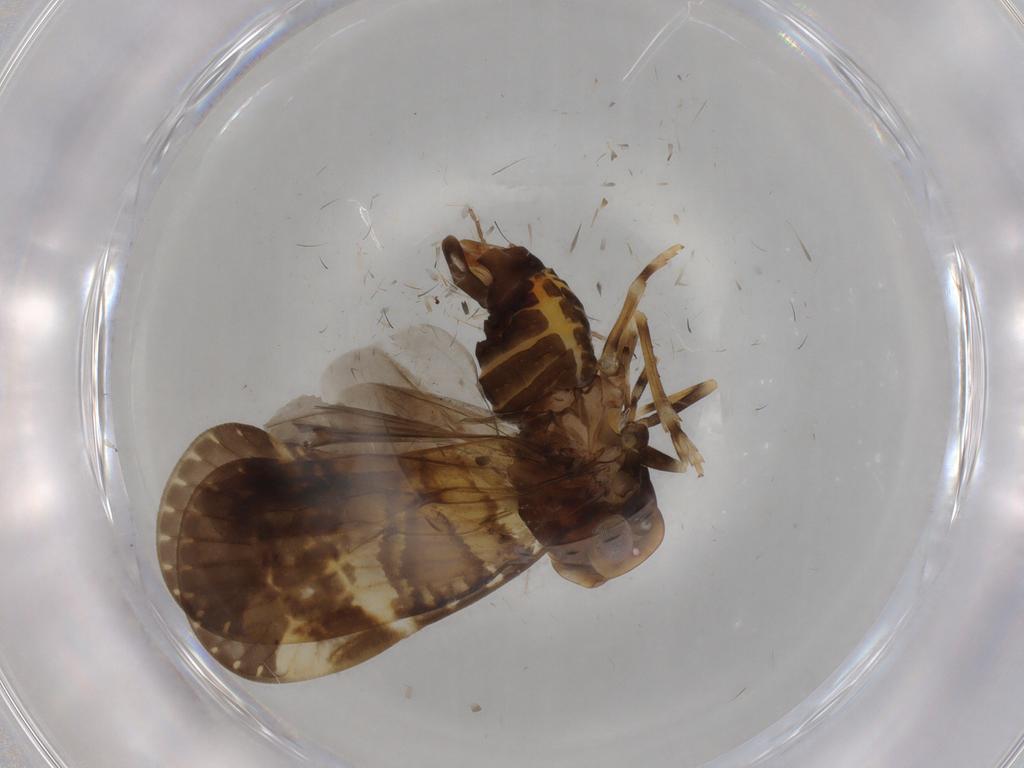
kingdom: Animalia
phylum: Arthropoda
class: Insecta
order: Hemiptera
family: Cixiidae
